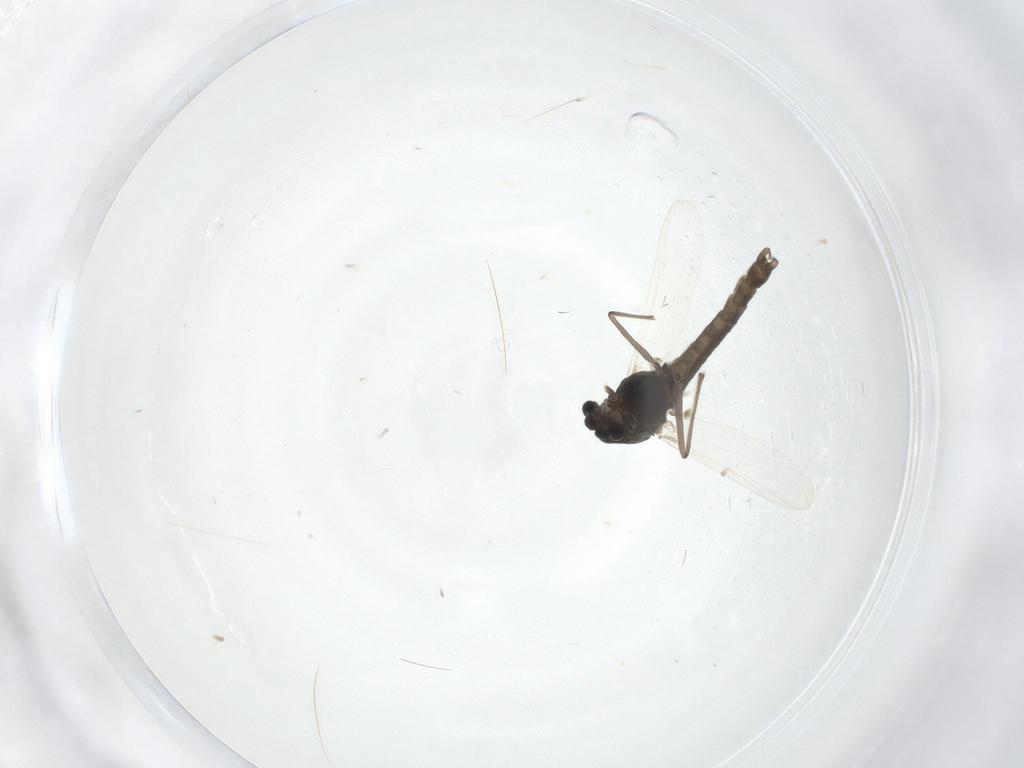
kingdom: Animalia
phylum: Arthropoda
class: Insecta
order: Diptera
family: Chironomidae
